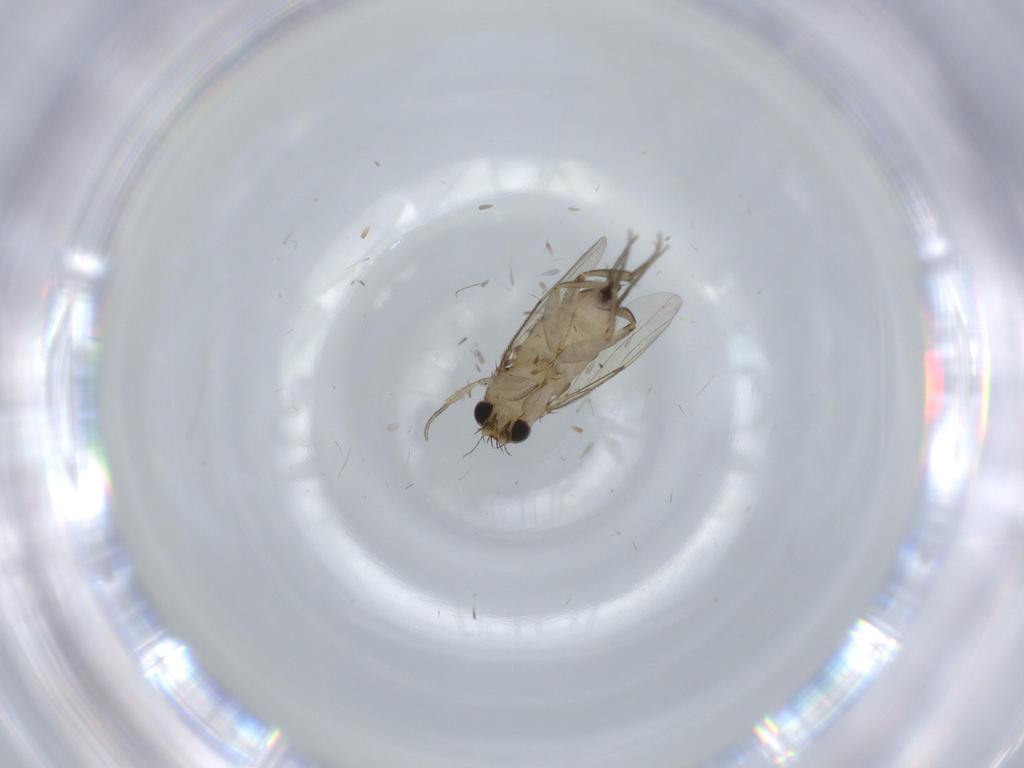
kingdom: Animalia
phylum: Arthropoda
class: Insecta
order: Diptera
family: Phoridae
